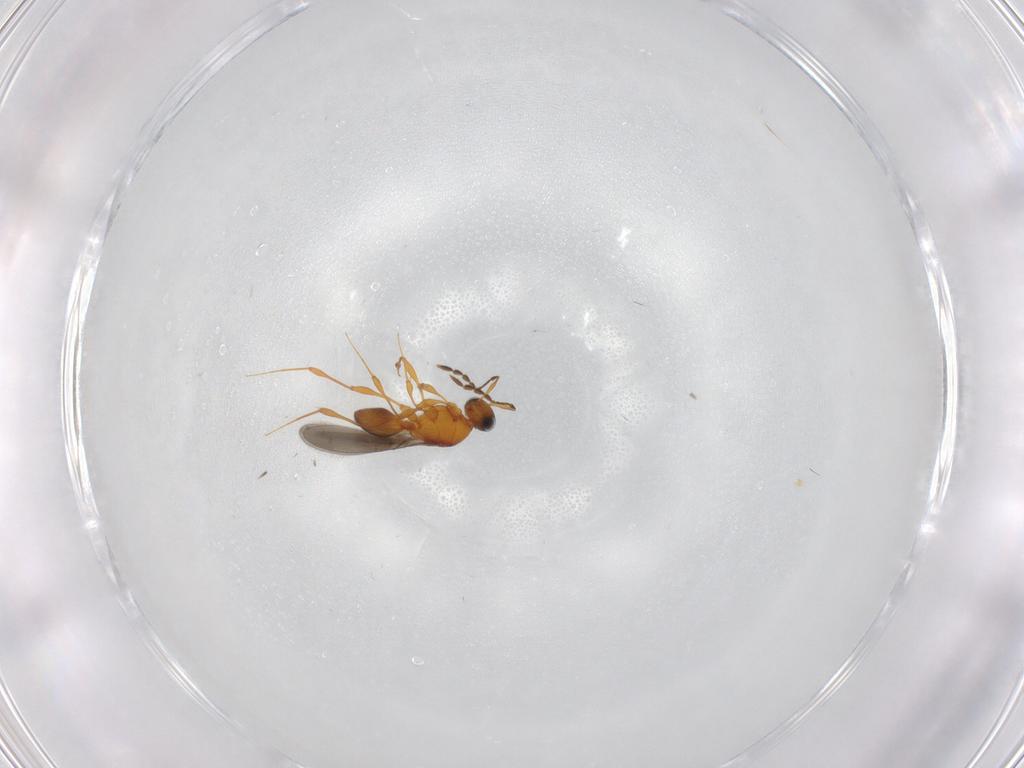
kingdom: Animalia
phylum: Arthropoda
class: Insecta
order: Hymenoptera
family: Platygastridae
